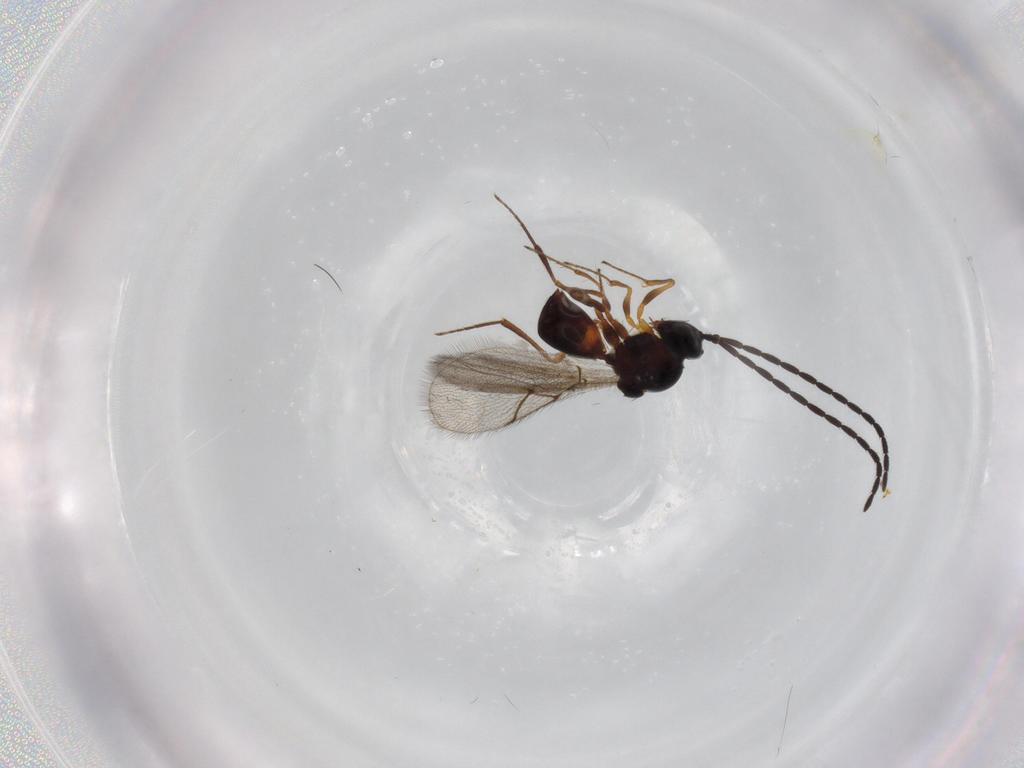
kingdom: Animalia
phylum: Arthropoda
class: Insecta
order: Hymenoptera
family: Figitidae
